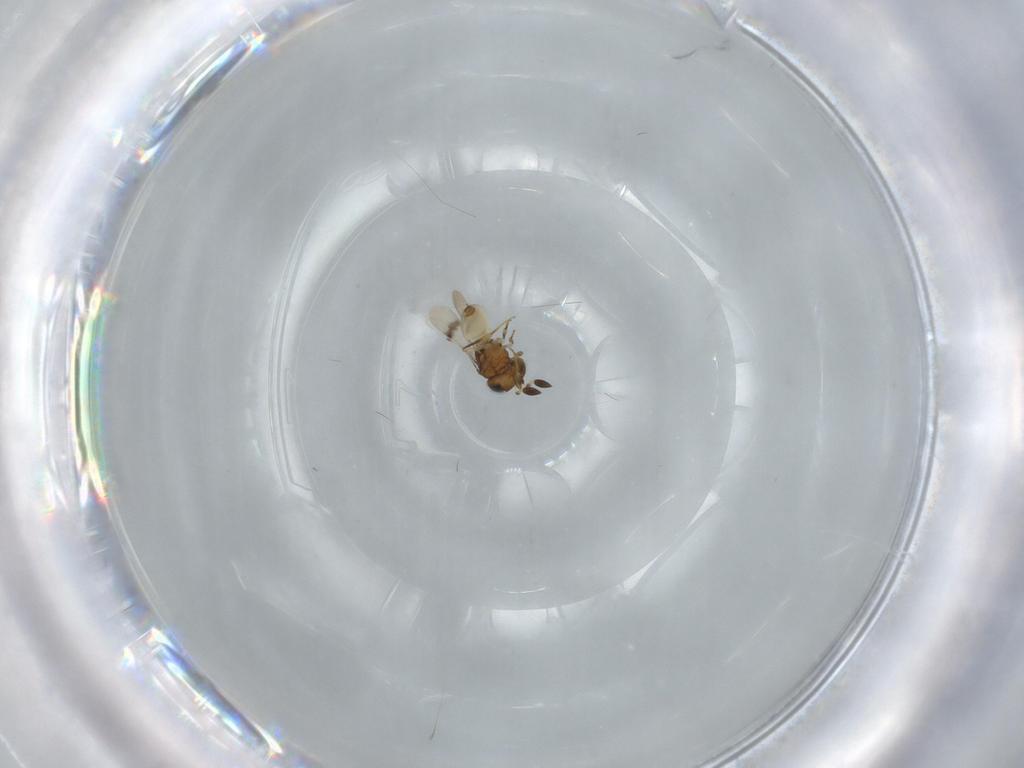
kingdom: Animalia
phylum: Arthropoda
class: Arachnida
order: Araneae
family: Pholcidae
